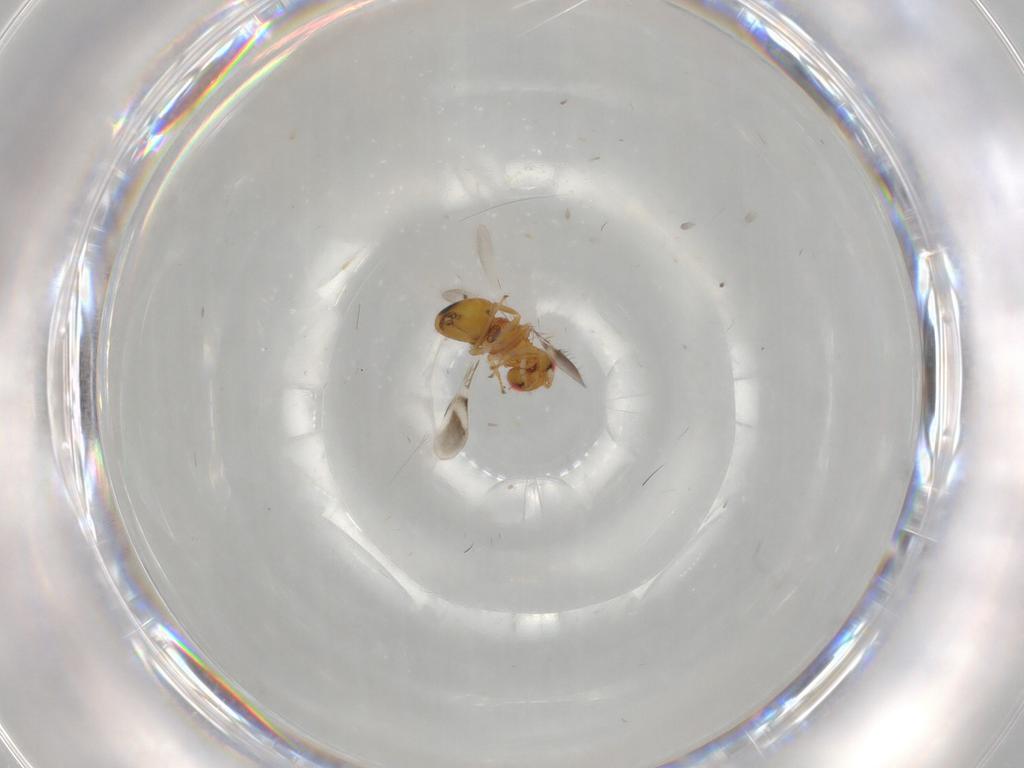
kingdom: Animalia
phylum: Arthropoda
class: Insecta
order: Hymenoptera
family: Eulophidae
